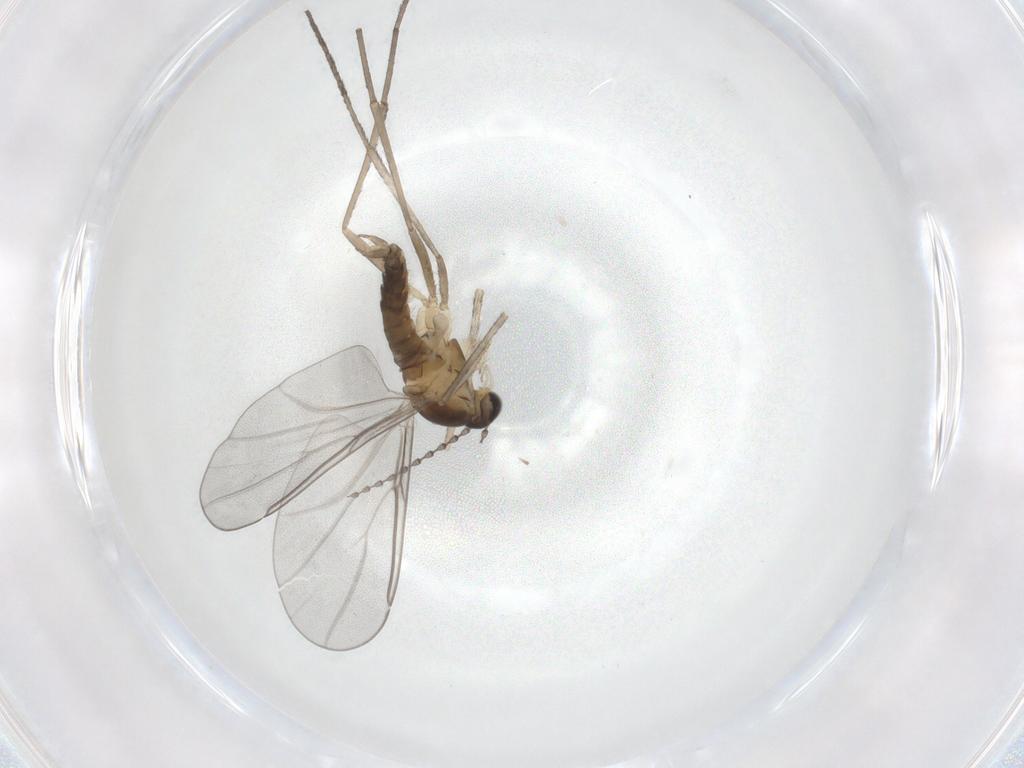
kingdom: Animalia
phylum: Arthropoda
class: Insecta
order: Diptera
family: Cecidomyiidae
